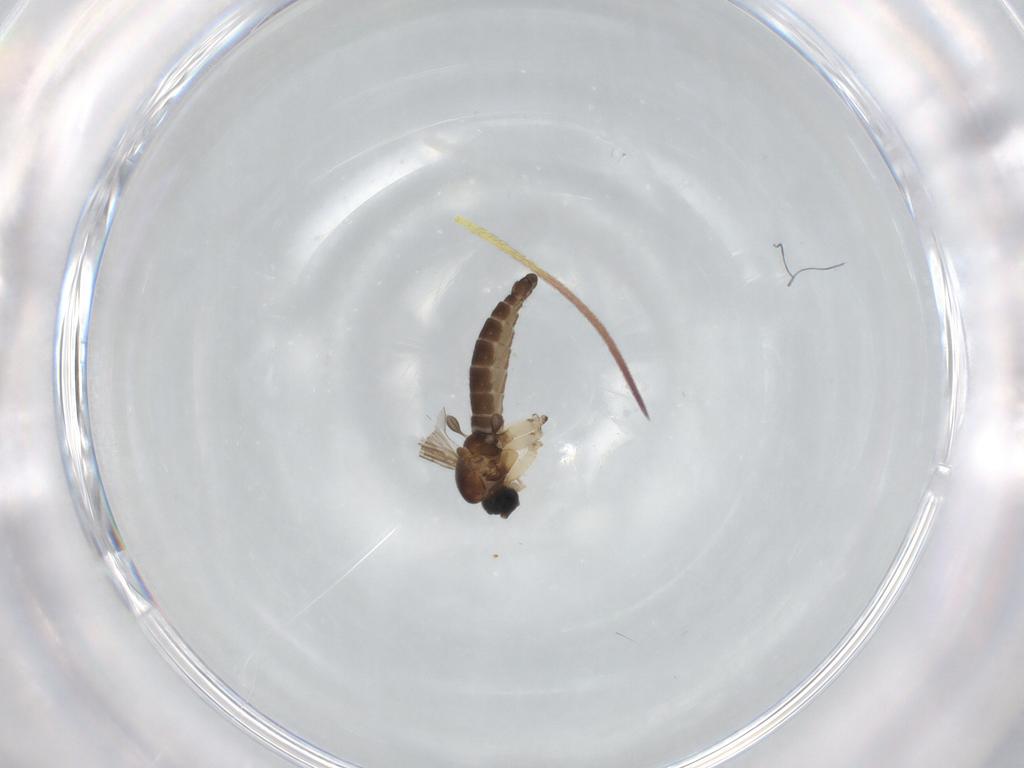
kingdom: Animalia
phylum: Arthropoda
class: Insecta
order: Diptera
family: Sciaridae
